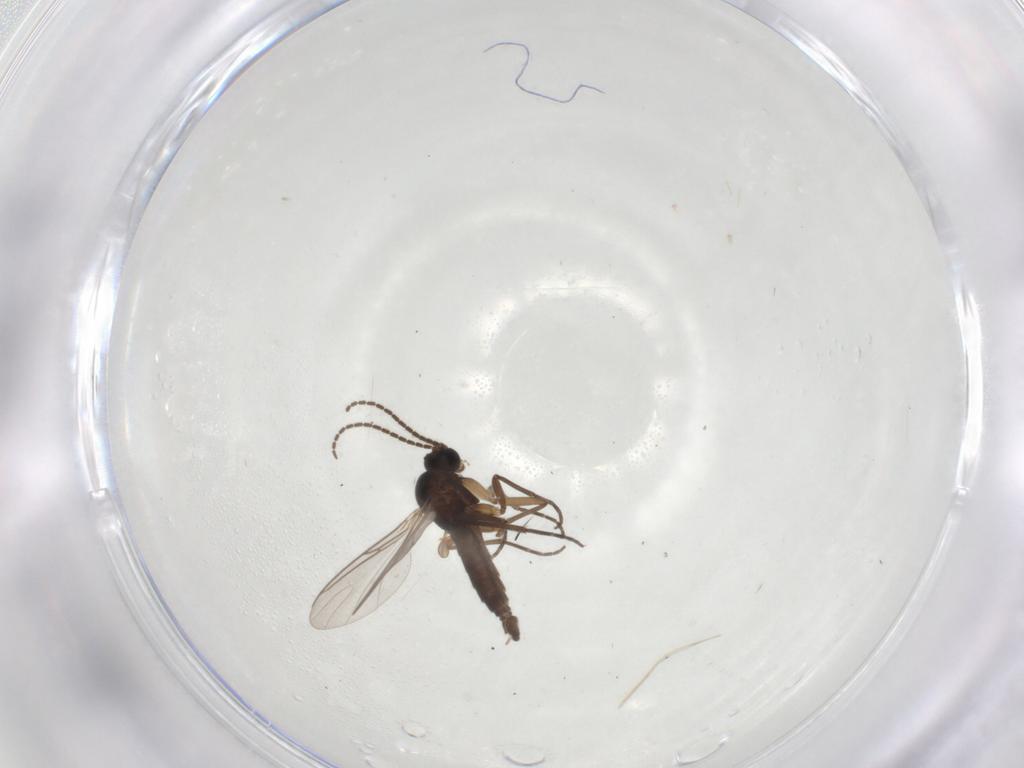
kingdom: Animalia
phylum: Arthropoda
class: Insecta
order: Diptera
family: Sciaridae
